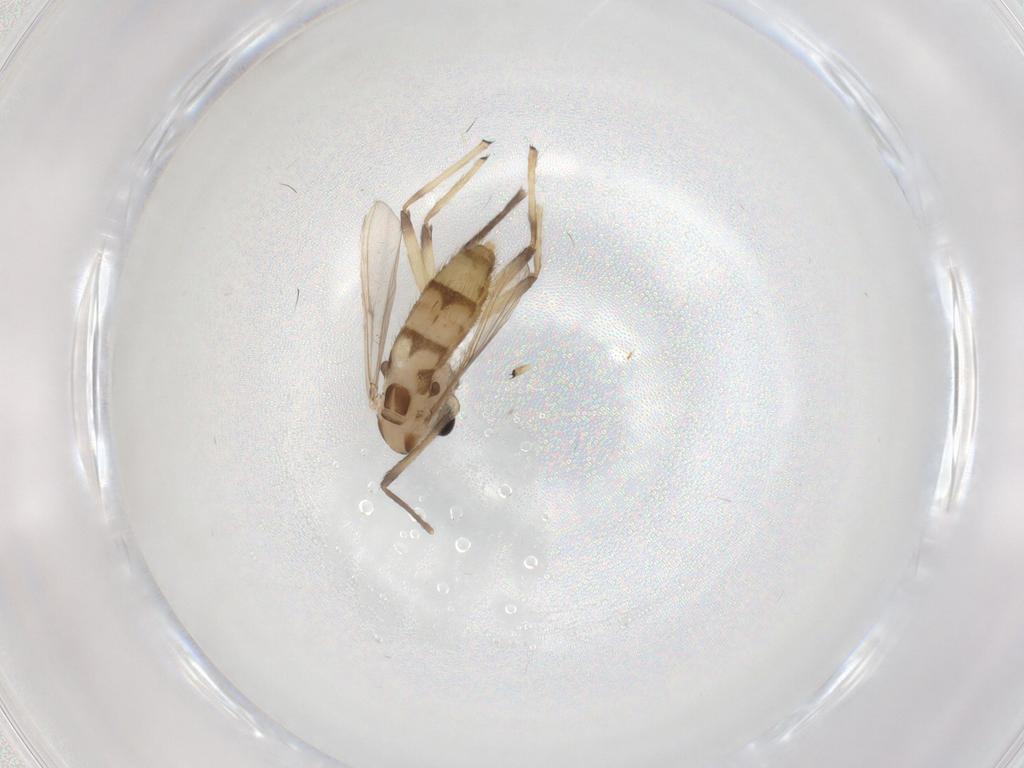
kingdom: Animalia
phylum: Arthropoda
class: Insecta
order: Diptera
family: Chironomidae
